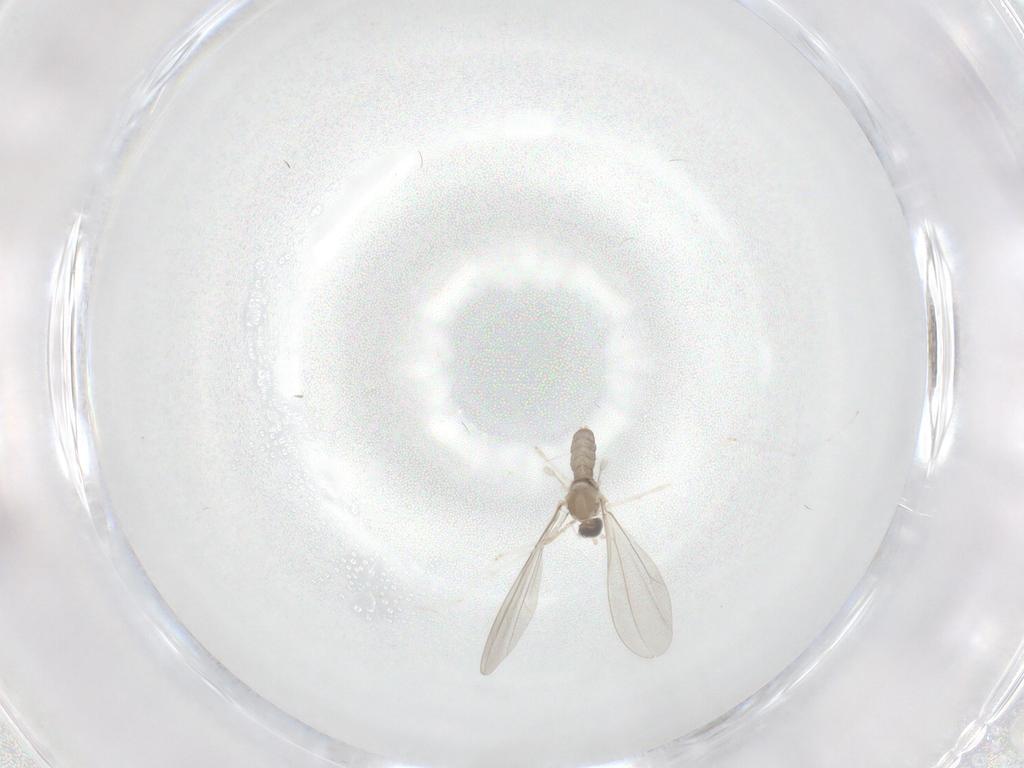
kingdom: Animalia
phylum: Arthropoda
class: Insecta
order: Diptera
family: Cecidomyiidae
